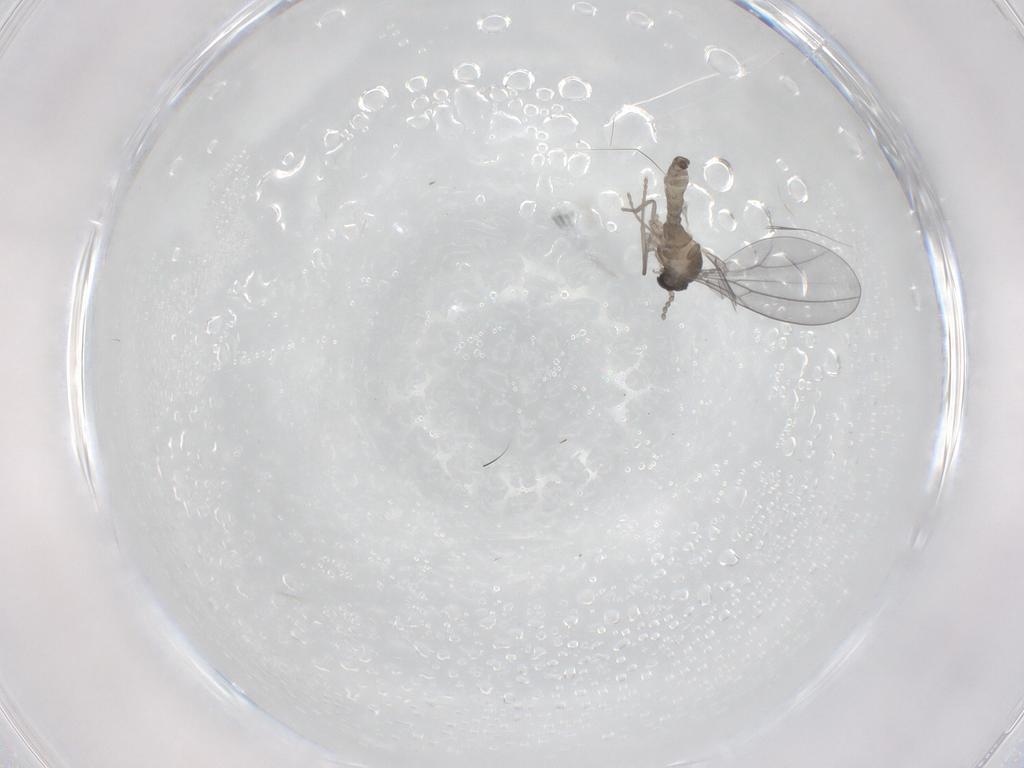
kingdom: Animalia
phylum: Arthropoda
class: Insecta
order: Diptera
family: Cecidomyiidae
